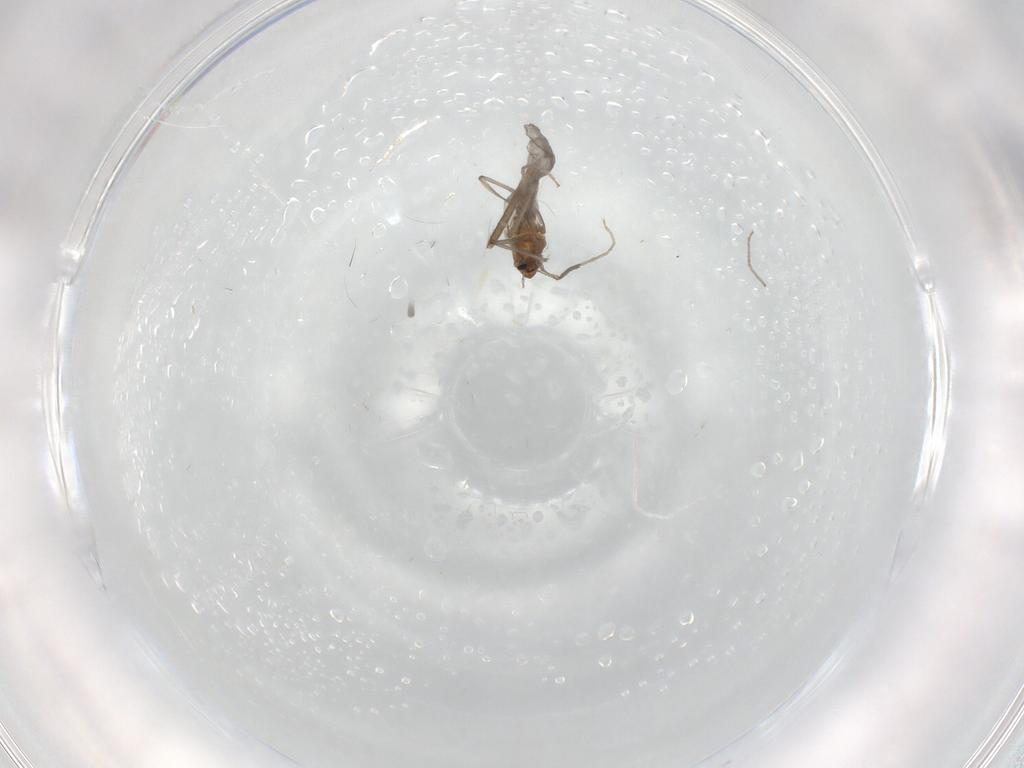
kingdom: Animalia
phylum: Arthropoda
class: Insecta
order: Diptera
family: Chironomidae
